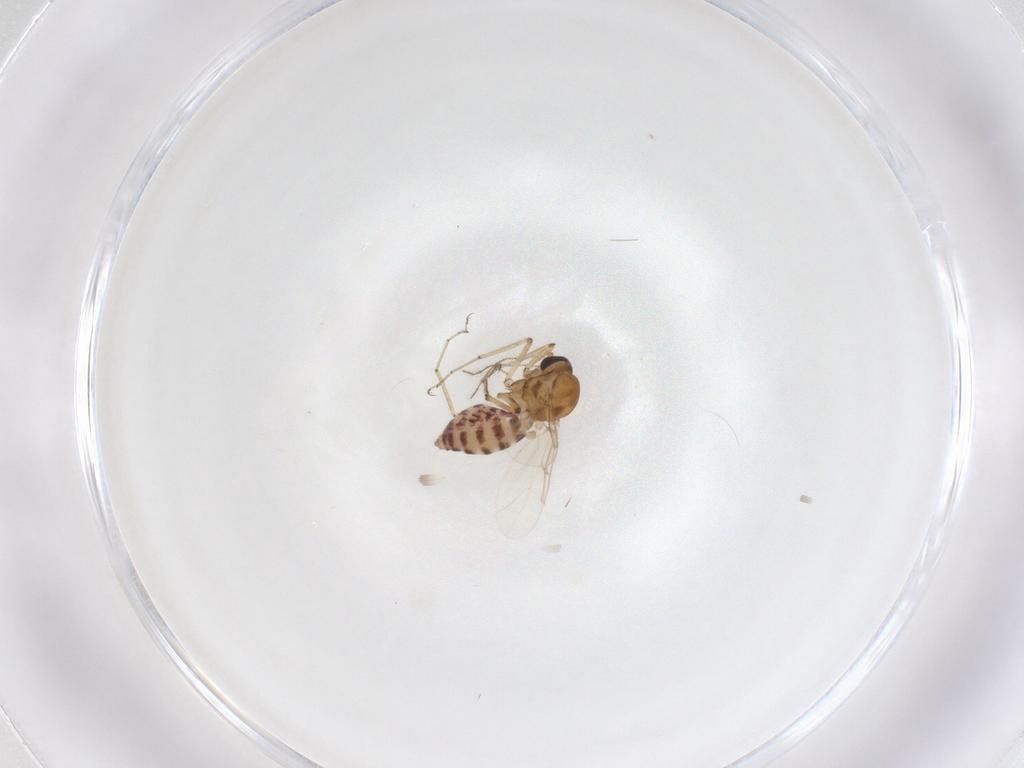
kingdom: Animalia
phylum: Arthropoda
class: Insecta
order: Diptera
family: Ceratopogonidae
